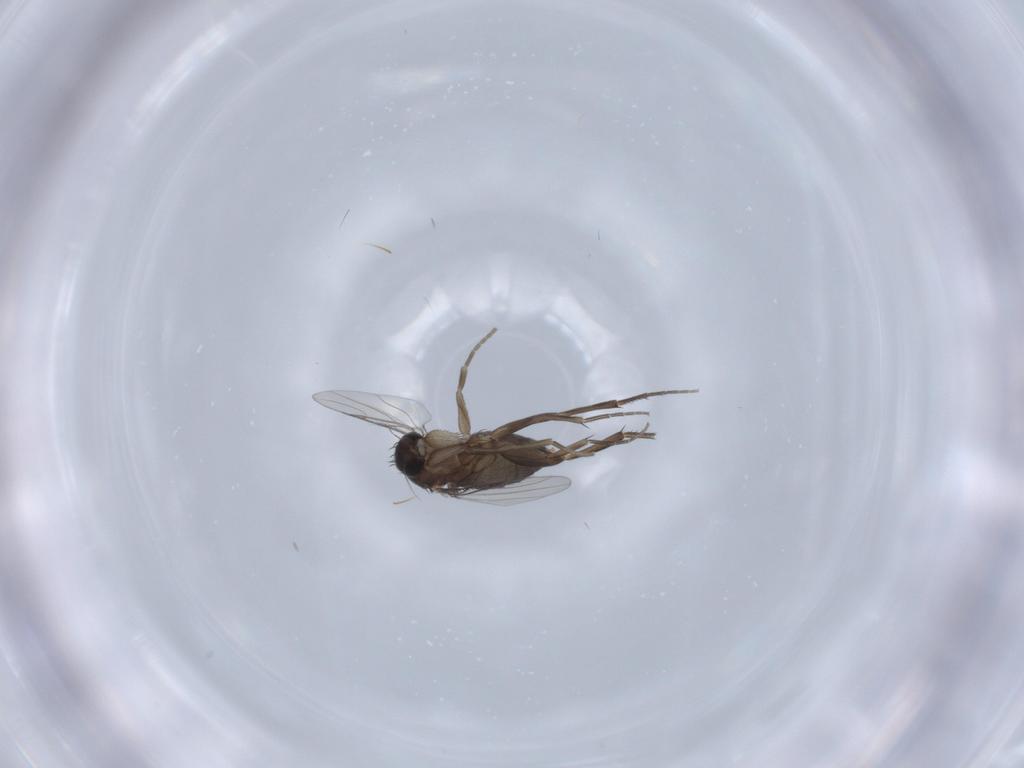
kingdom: Animalia
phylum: Arthropoda
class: Insecta
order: Diptera
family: Phoridae
